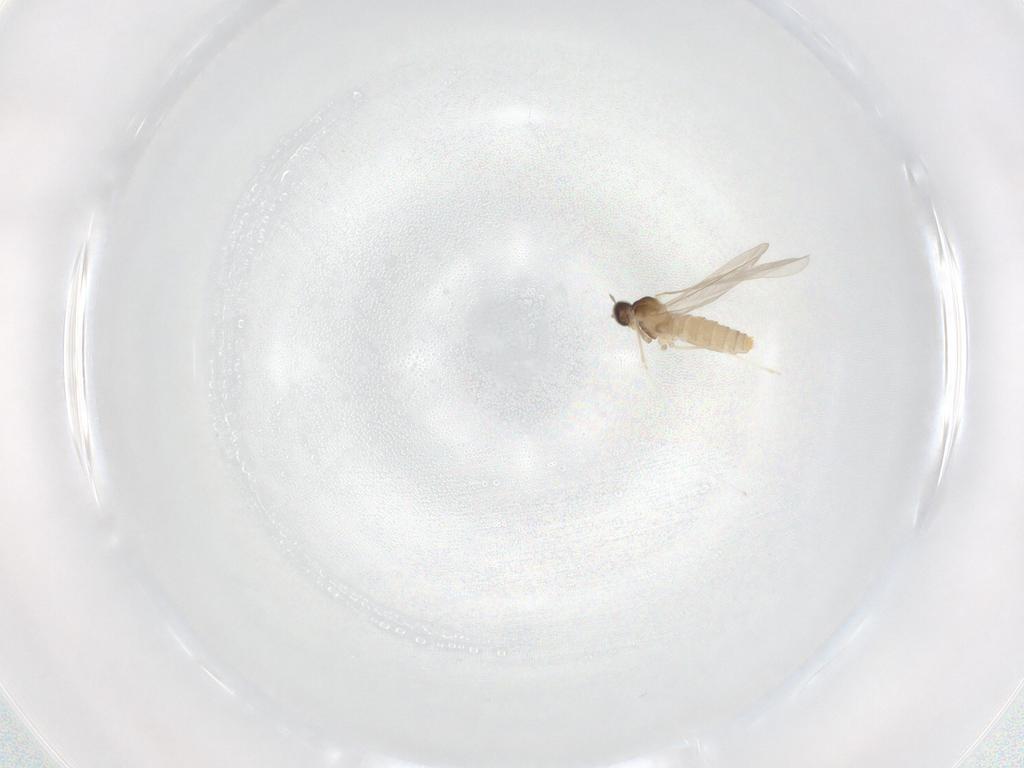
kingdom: Animalia
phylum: Arthropoda
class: Insecta
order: Diptera
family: Cecidomyiidae
